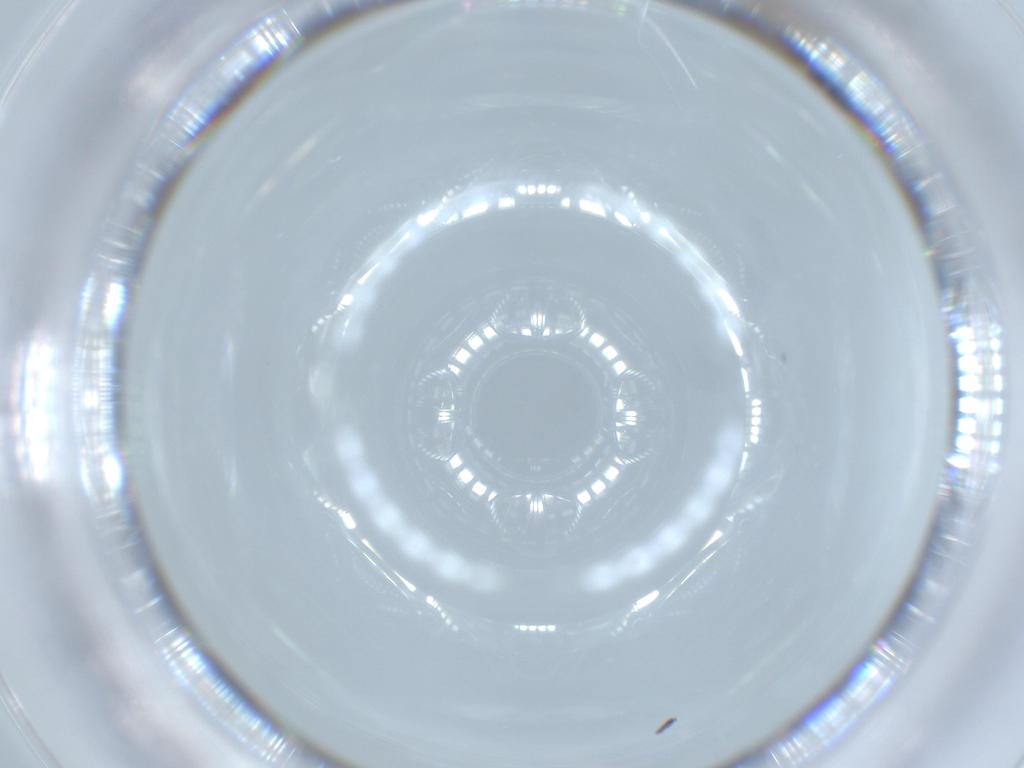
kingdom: Animalia
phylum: Arthropoda
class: Insecta
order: Diptera
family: Cecidomyiidae
